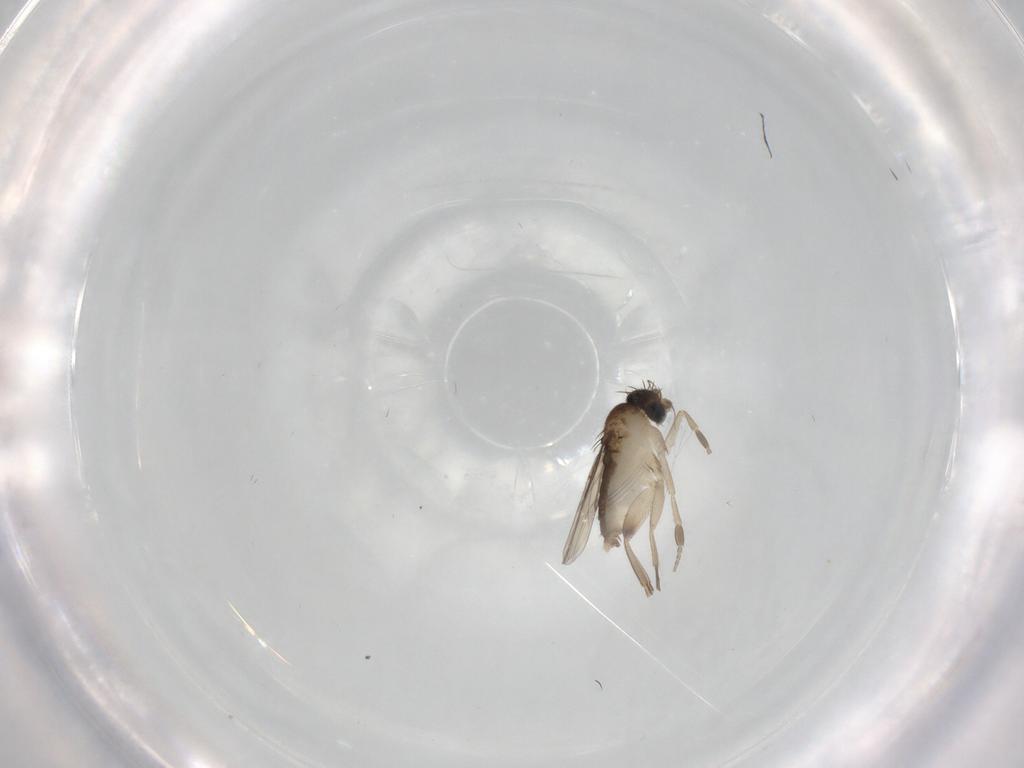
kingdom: Animalia
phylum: Arthropoda
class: Insecta
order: Diptera
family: Phoridae
